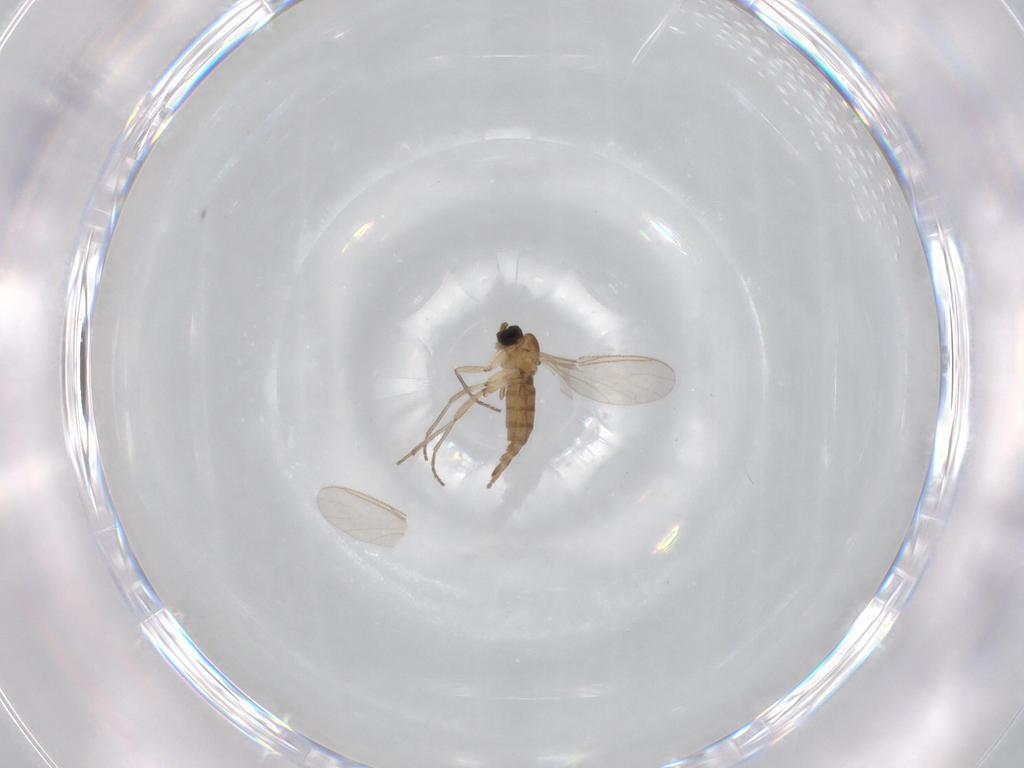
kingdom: Animalia
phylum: Arthropoda
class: Insecta
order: Diptera
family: Sciaridae
